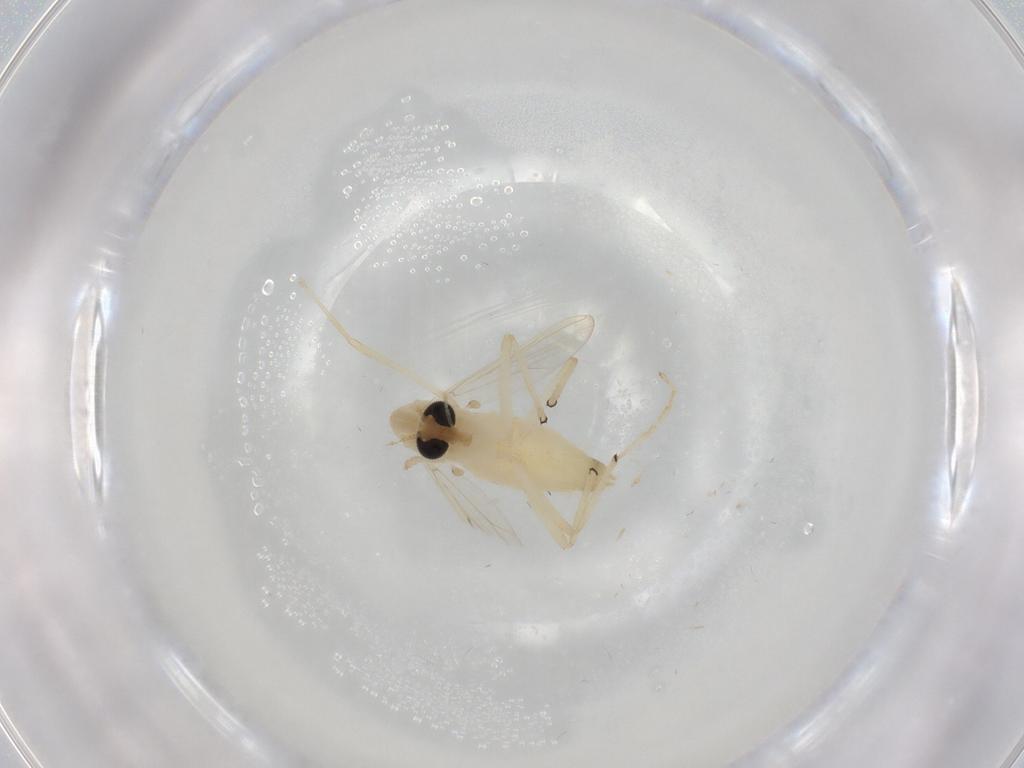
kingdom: Animalia
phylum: Arthropoda
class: Insecta
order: Diptera
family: Chironomidae
